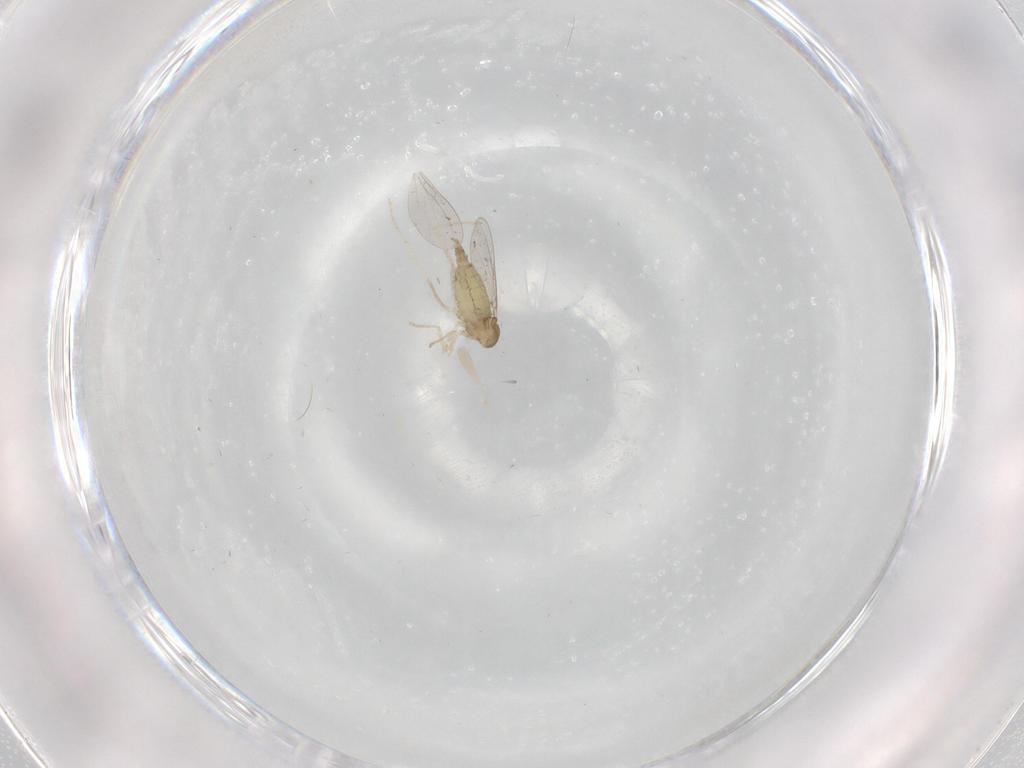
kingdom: Animalia
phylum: Arthropoda
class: Insecta
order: Diptera
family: Cecidomyiidae
